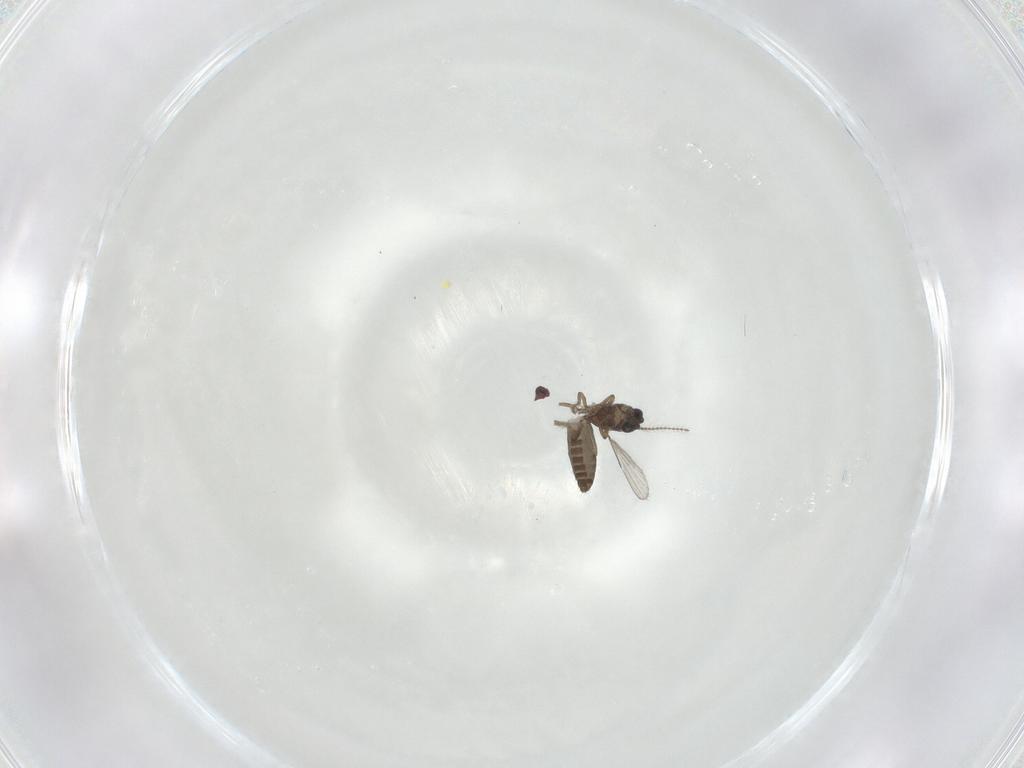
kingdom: Animalia
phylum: Arthropoda
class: Insecta
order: Diptera
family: Ceratopogonidae
